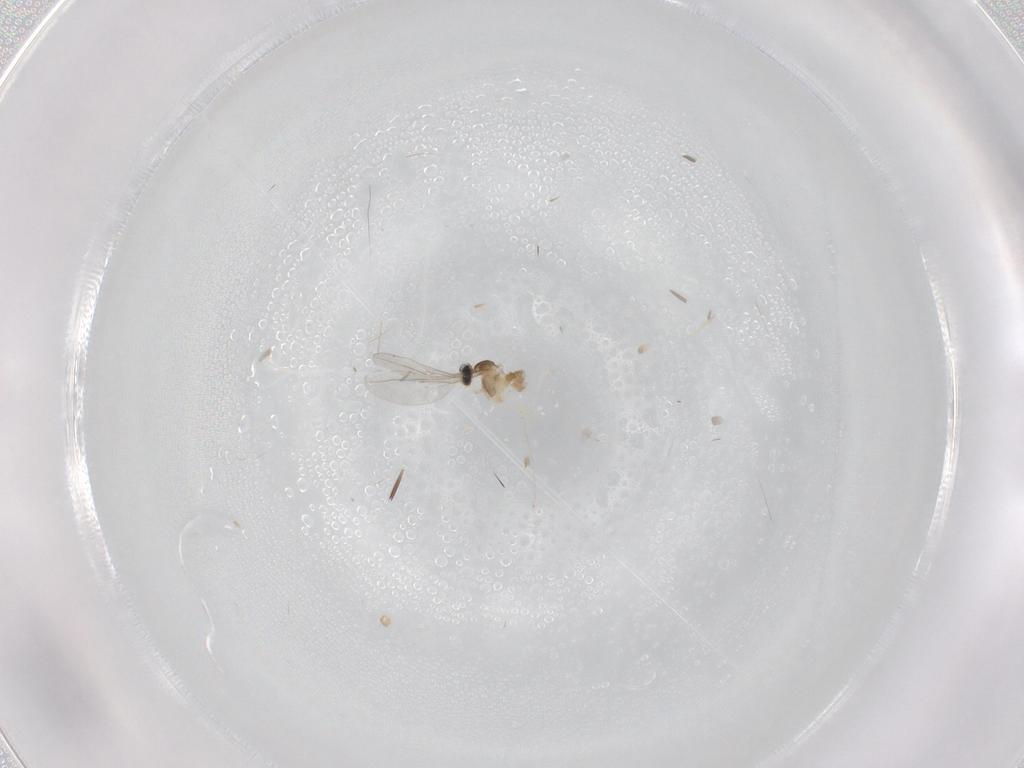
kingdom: Animalia
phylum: Arthropoda
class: Insecta
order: Diptera
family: Cecidomyiidae
